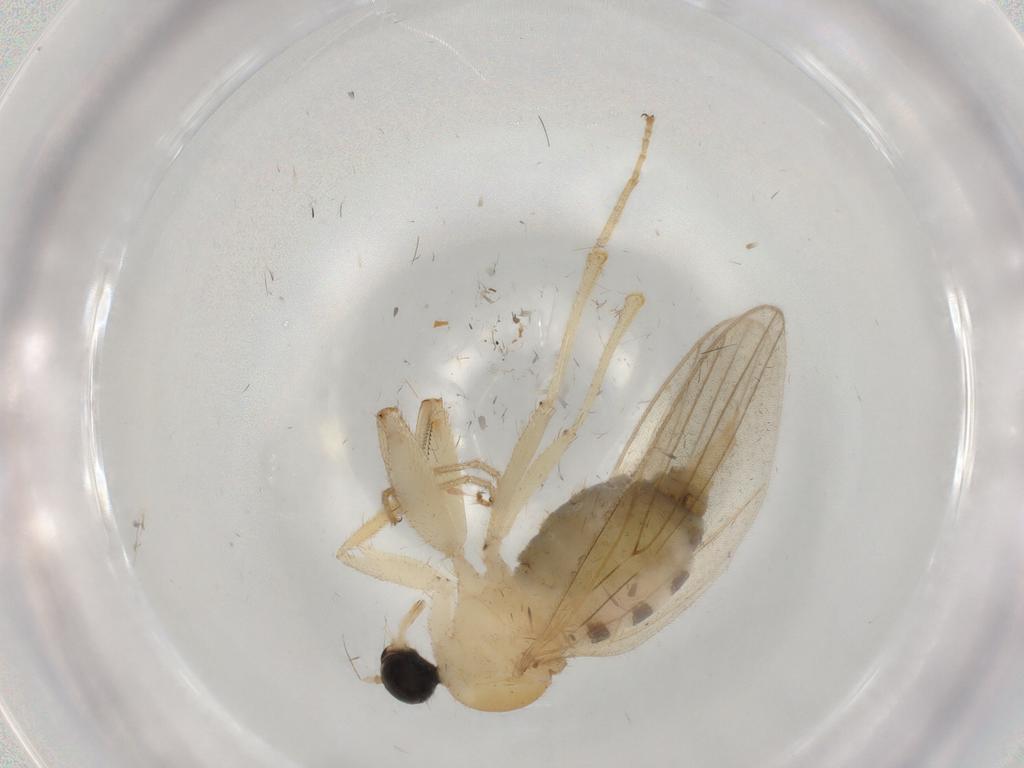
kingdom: Animalia
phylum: Arthropoda
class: Insecta
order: Diptera
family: Hybotidae
